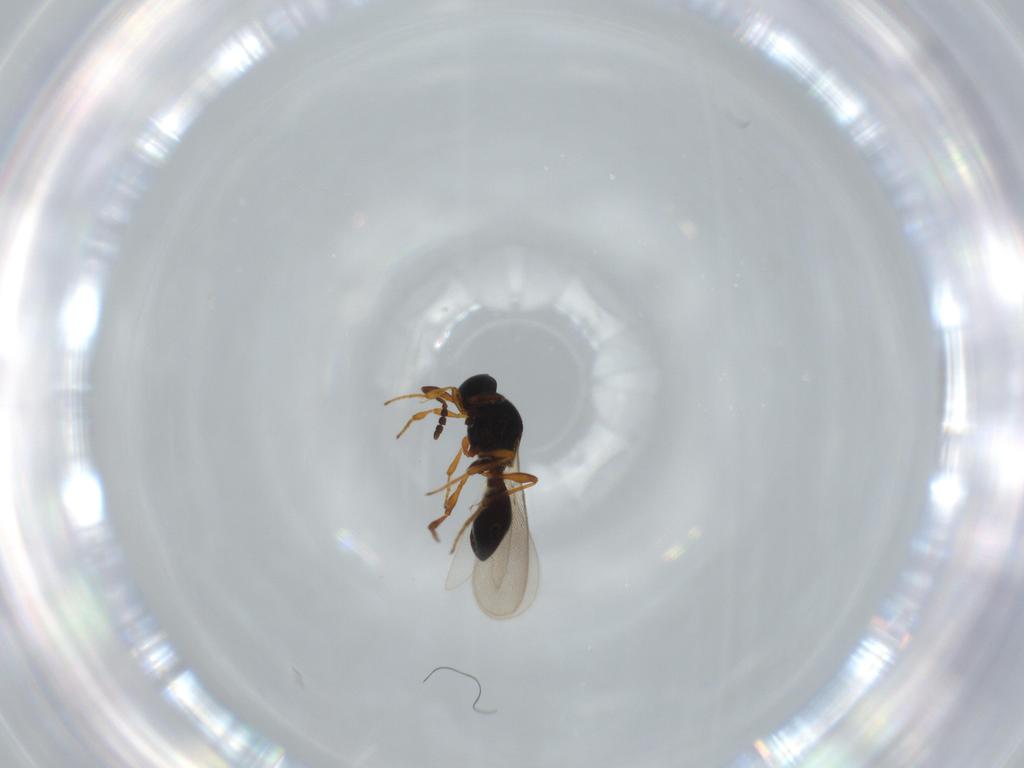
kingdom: Animalia
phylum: Arthropoda
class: Insecta
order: Hymenoptera
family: Platygastridae
